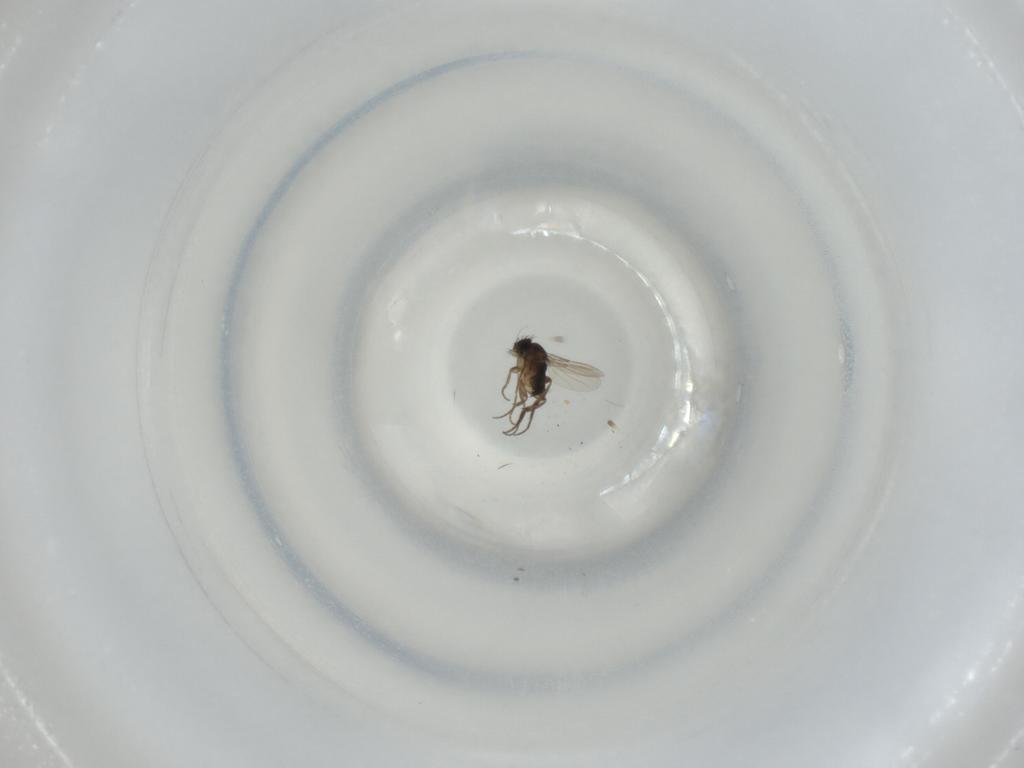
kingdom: Animalia
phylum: Arthropoda
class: Insecta
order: Diptera
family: Phoridae
